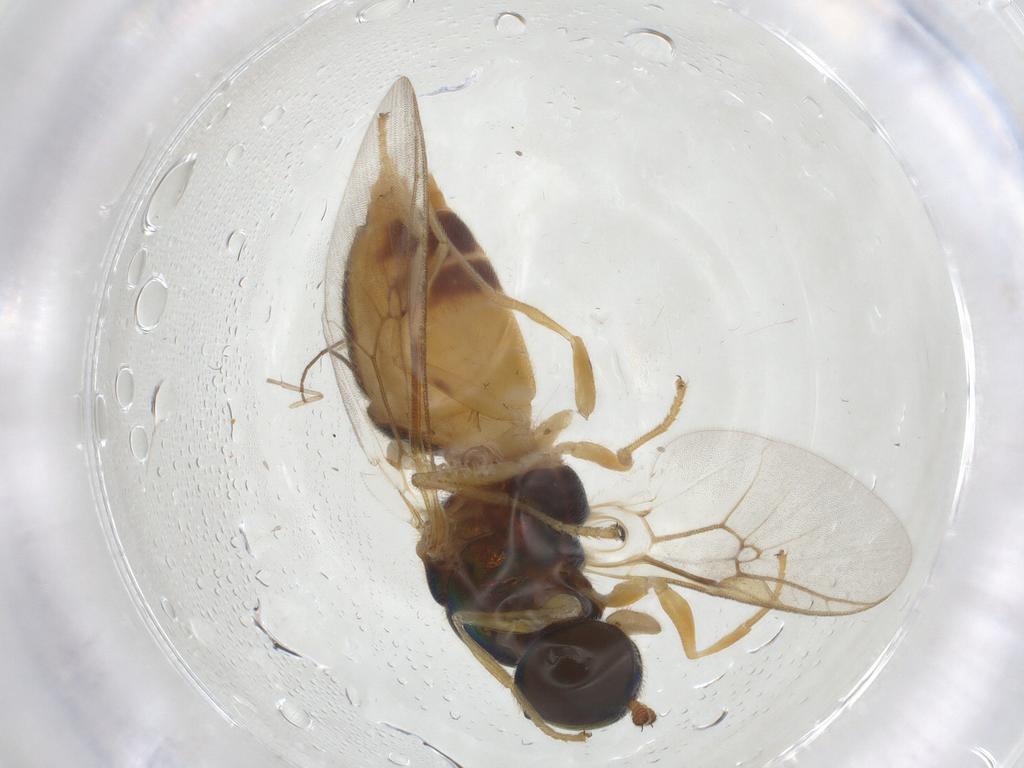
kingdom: Animalia
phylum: Arthropoda
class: Insecta
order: Diptera
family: Stratiomyidae
